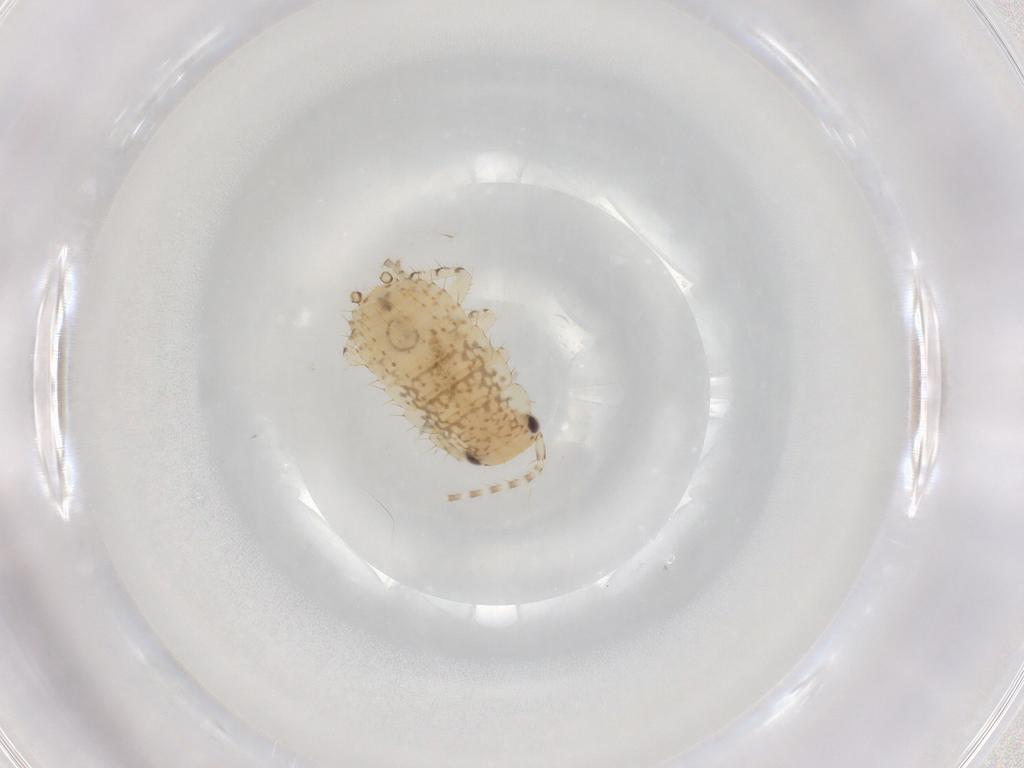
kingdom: Animalia
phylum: Arthropoda
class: Insecta
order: Blattodea
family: Ectobiidae
